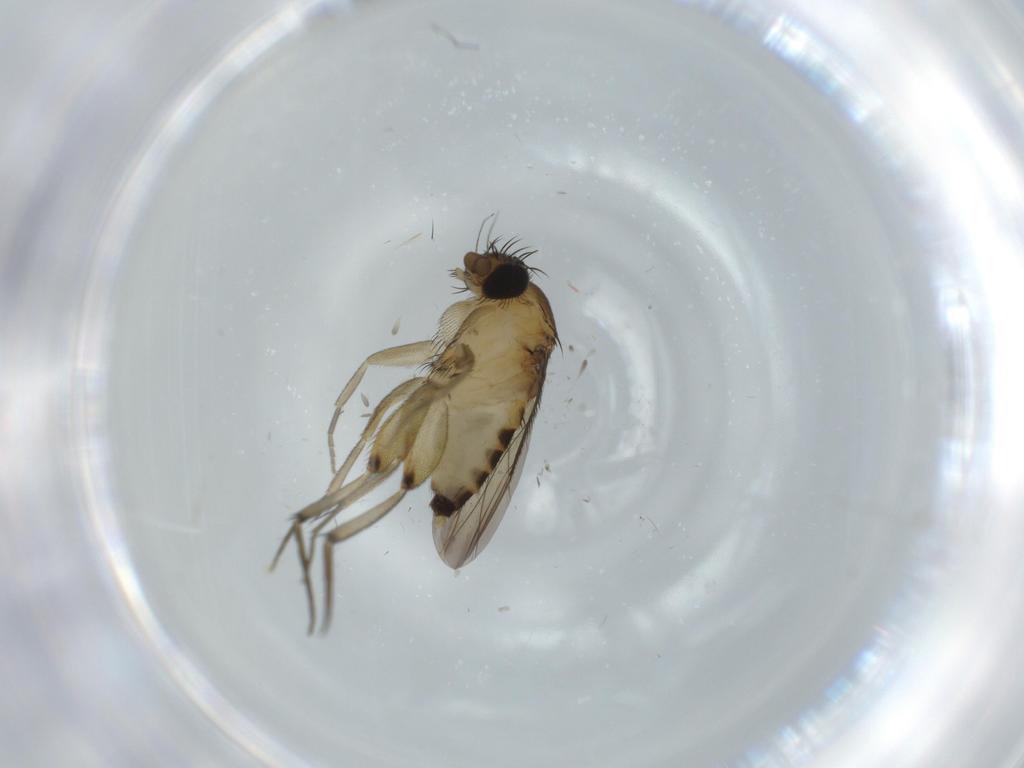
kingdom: Animalia
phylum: Arthropoda
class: Insecta
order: Diptera
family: Phoridae
